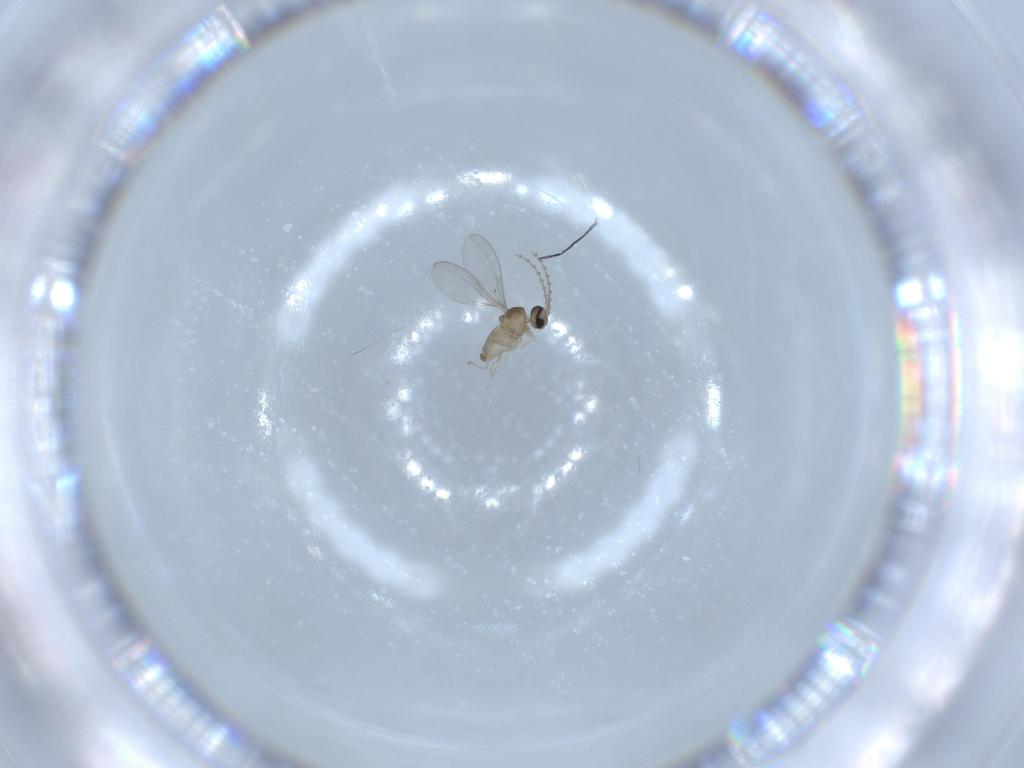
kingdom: Animalia
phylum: Arthropoda
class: Insecta
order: Diptera
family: Cecidomyiidae
